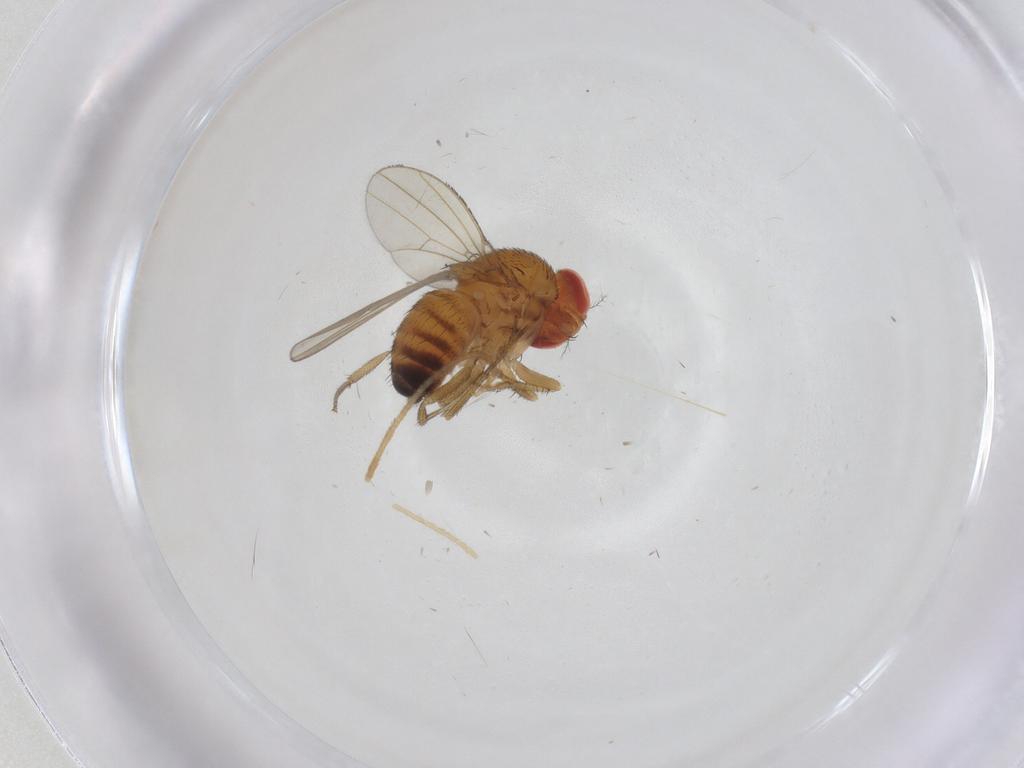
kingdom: Animalia
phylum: Arthropoda
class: Insecta
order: Diptera
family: Drosophilidae
